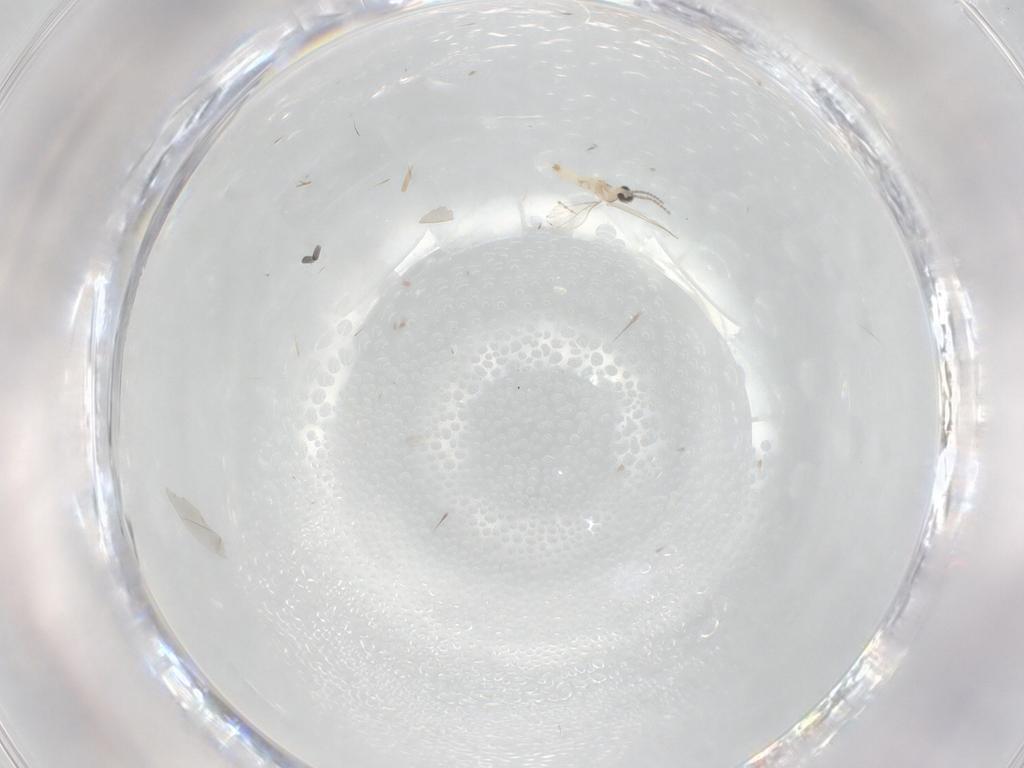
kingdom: Animalia
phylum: Arthropoda
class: Insecta
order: Diptera
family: Cecidomyiidae
